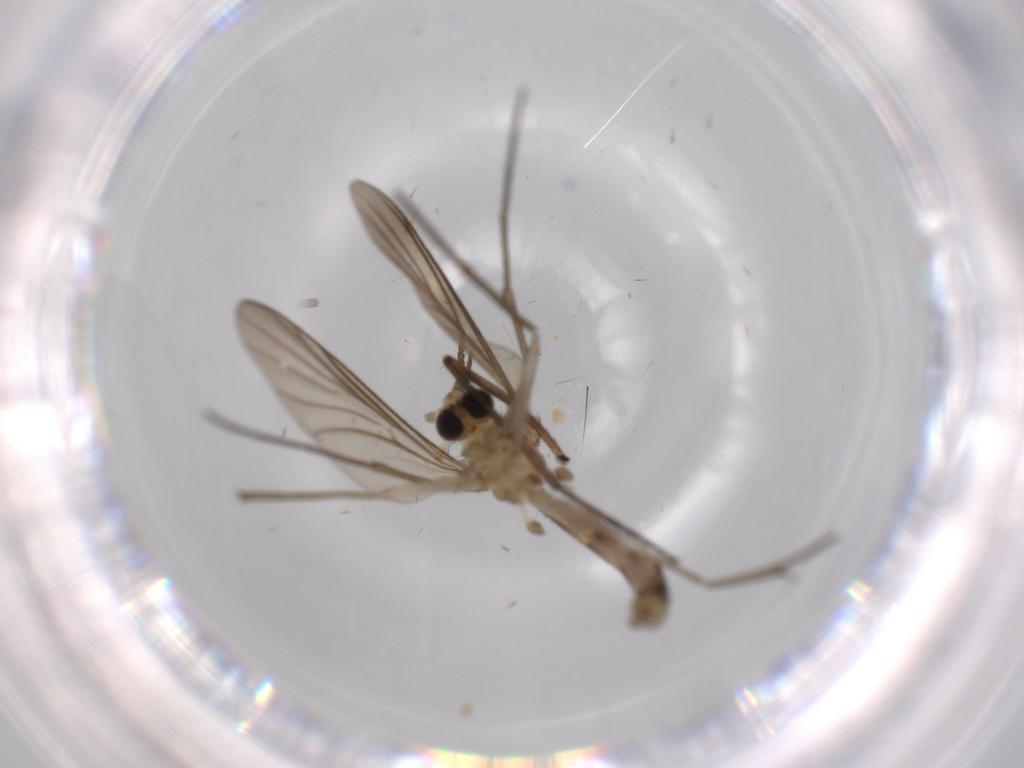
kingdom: Animalia
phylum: Arthropoda
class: Insecta
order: Diptera
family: Mycetophilidae
